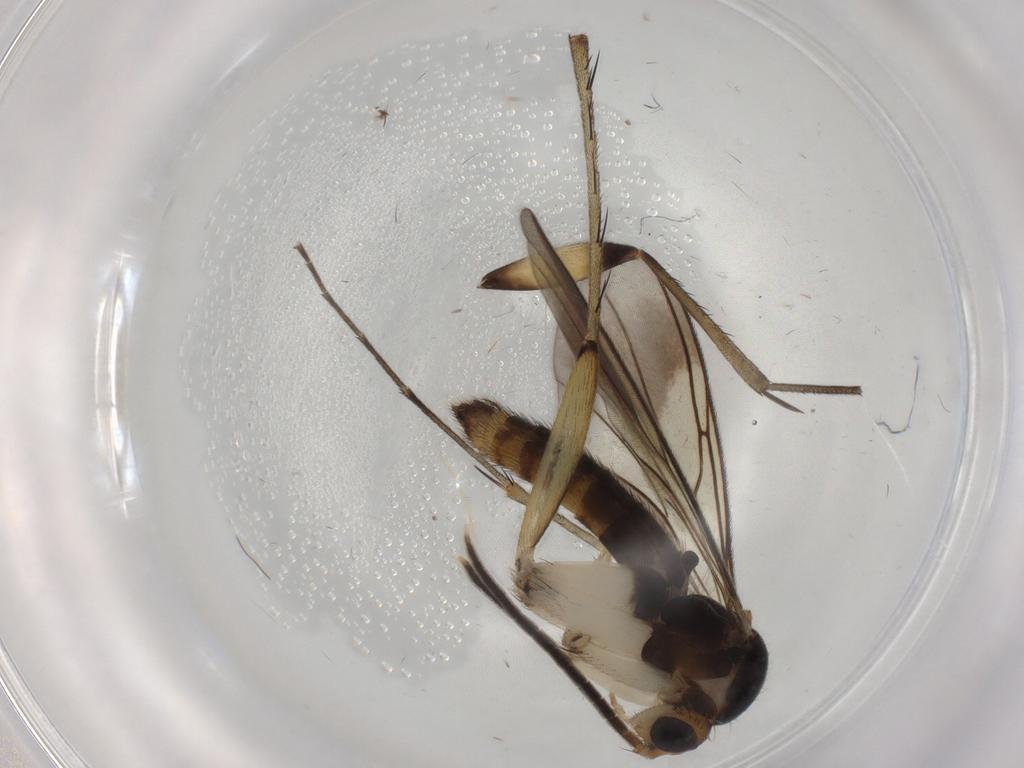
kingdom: Animalia
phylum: Arthropoda
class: Insecta
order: Diptera
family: Mycetophilidae
